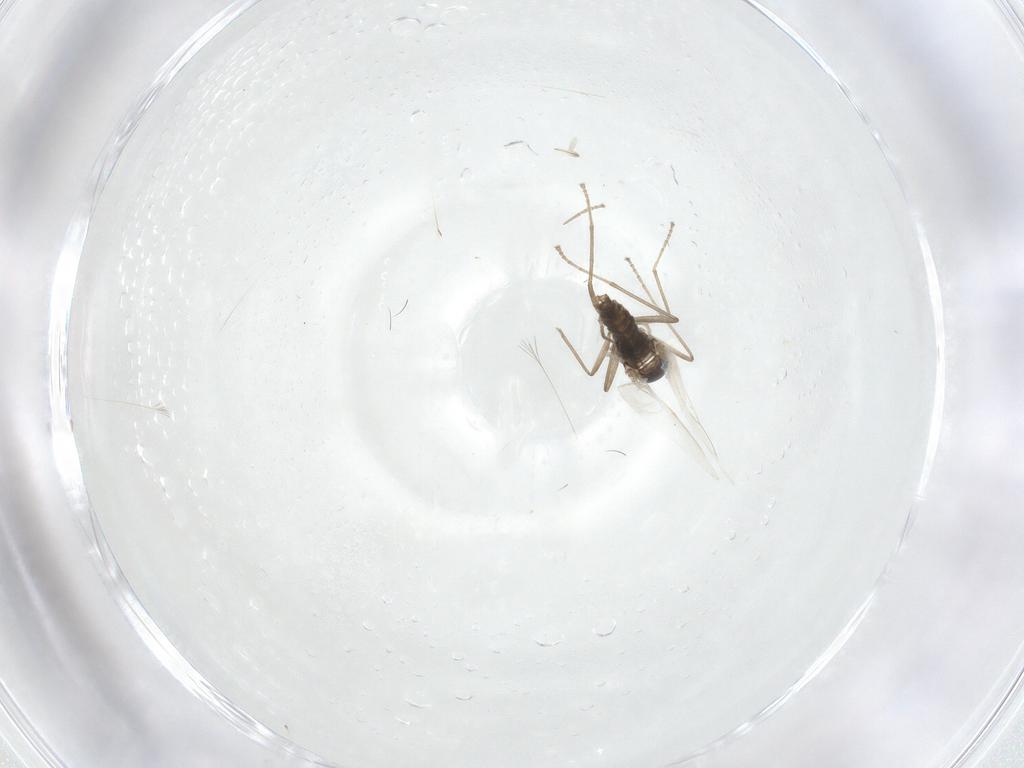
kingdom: Animalia
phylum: Arthropoda
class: Insecta
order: Diptera
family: Cecidomyiidae
